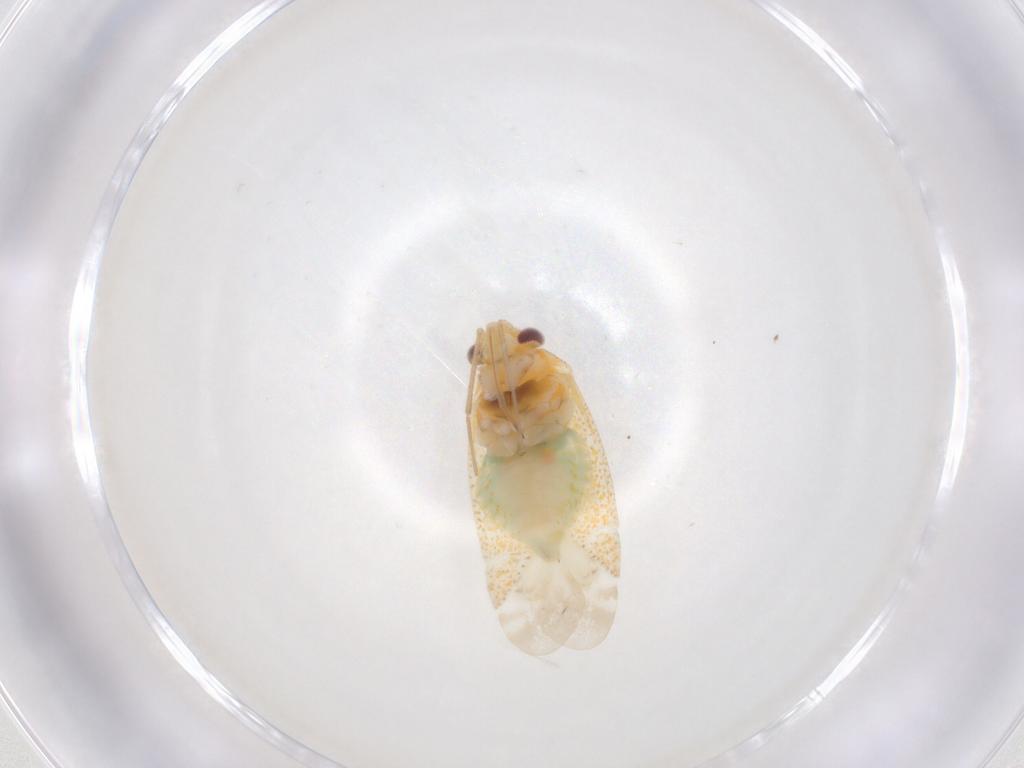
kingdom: Animalia
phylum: Arthropoda
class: Insecta
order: Hemiptera
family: Miridae
